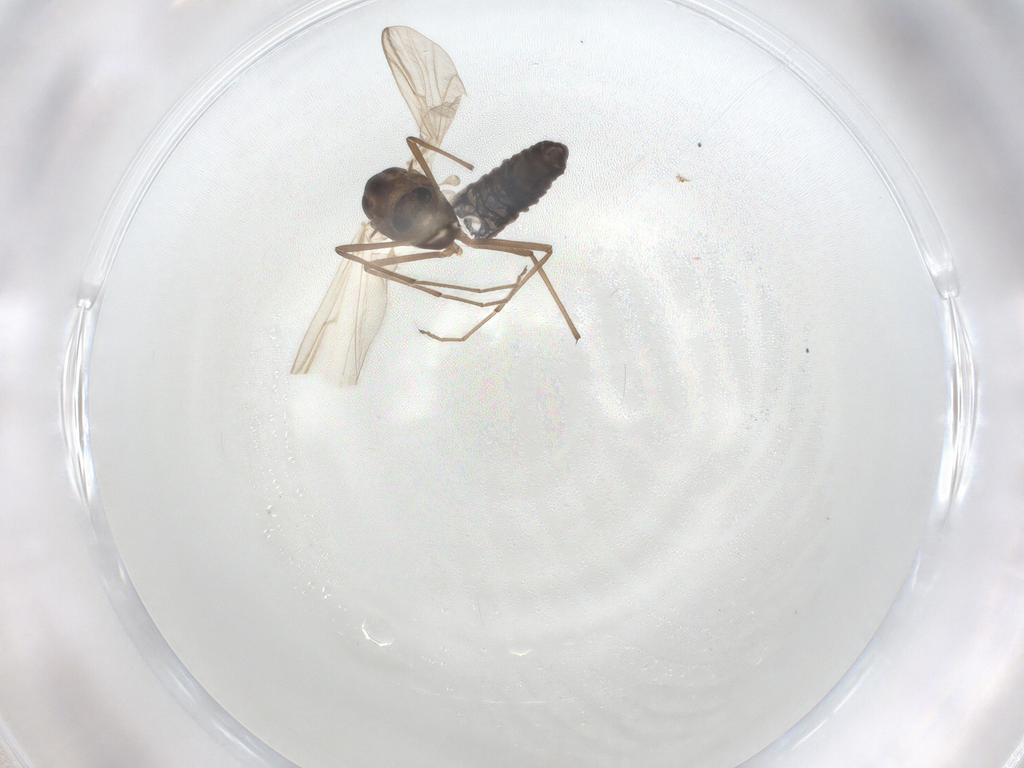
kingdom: Animalia
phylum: Arthropoda
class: Insecta
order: Diptera
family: Chironomidae
